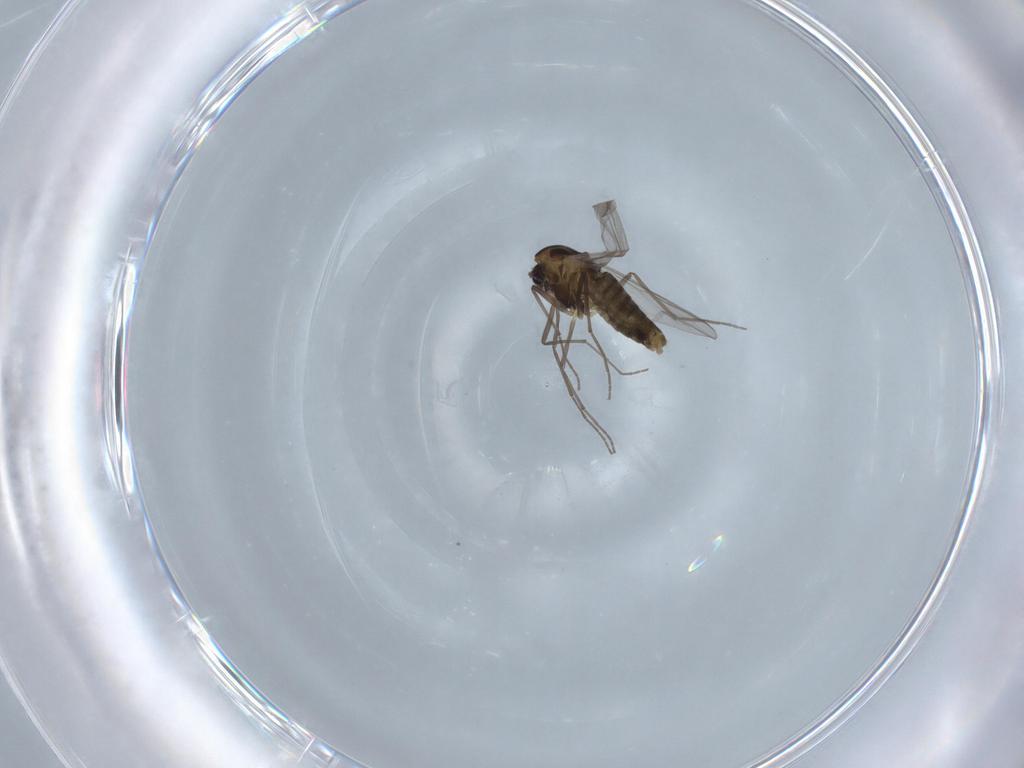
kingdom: Animalia
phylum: Arthropoda
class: Insecta
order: Diptera
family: Chironomidae
